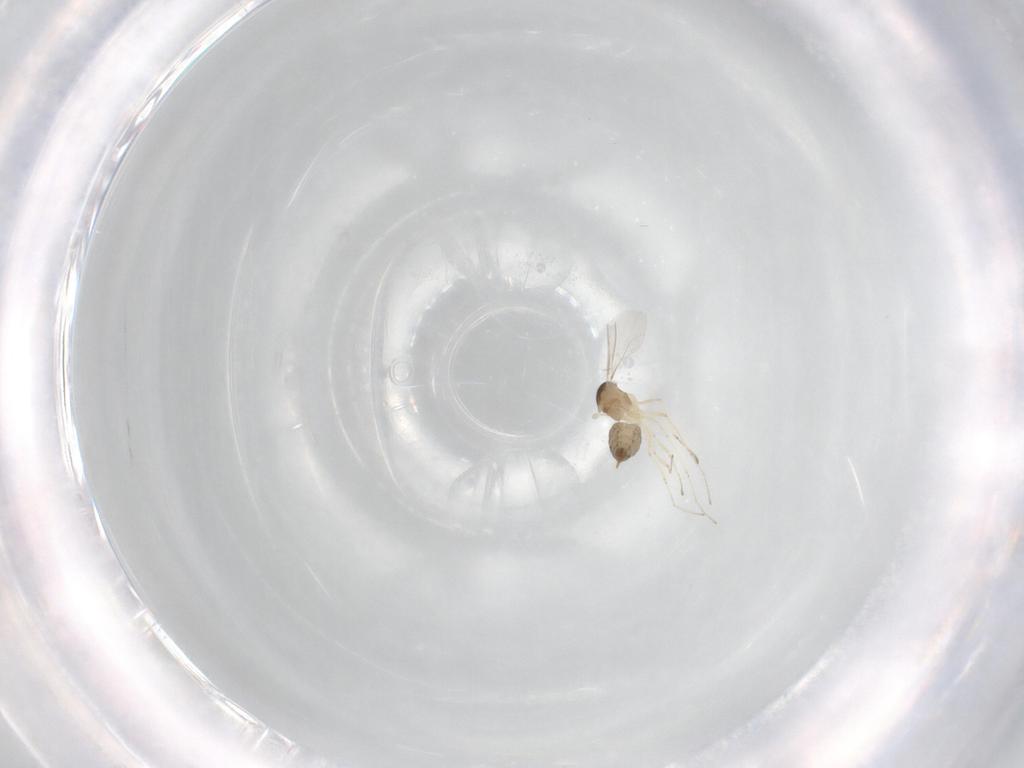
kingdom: Animalia
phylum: Arthropoda
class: Insecta
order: Diptera
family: Cecidomyiidae
